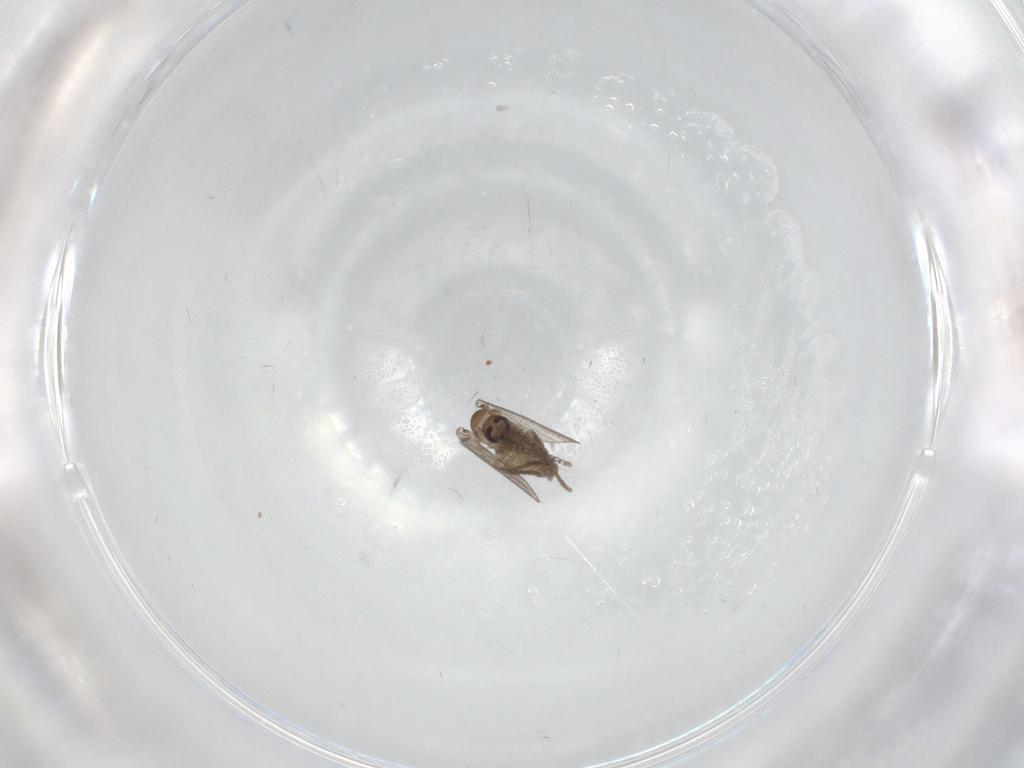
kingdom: Animalia
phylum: Arthropoda
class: Insecta
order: Diptera
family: Psychodidae
